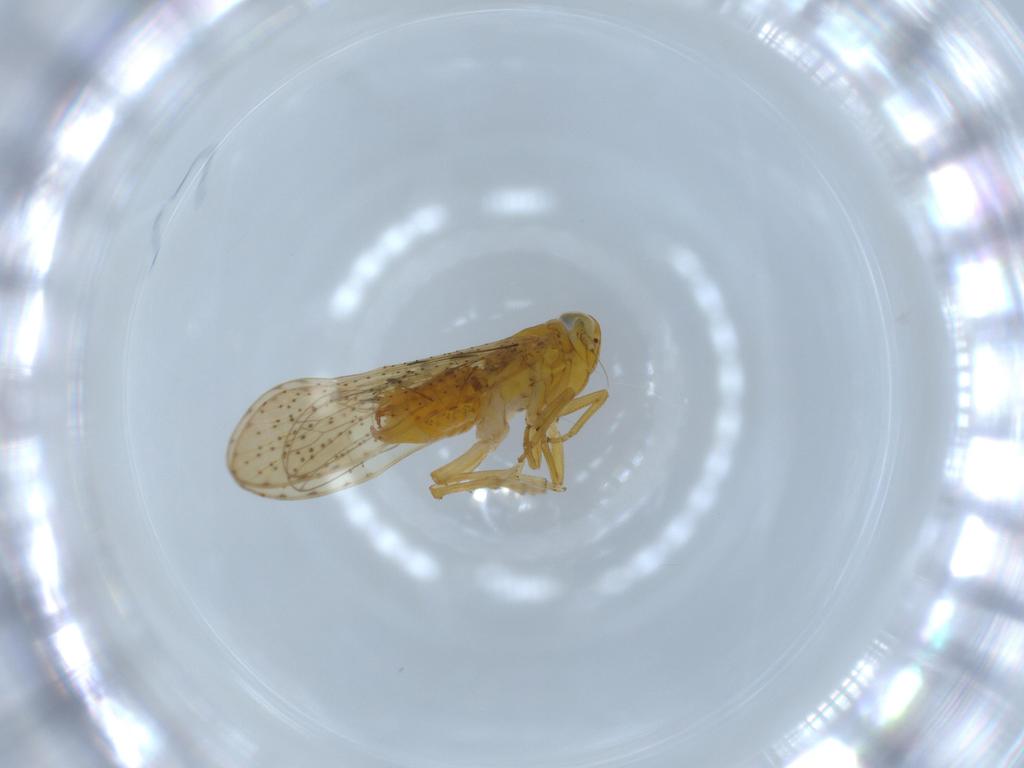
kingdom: Animalia
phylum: Arthropoda
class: Insecta
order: Hemiptera
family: Delphacidae
